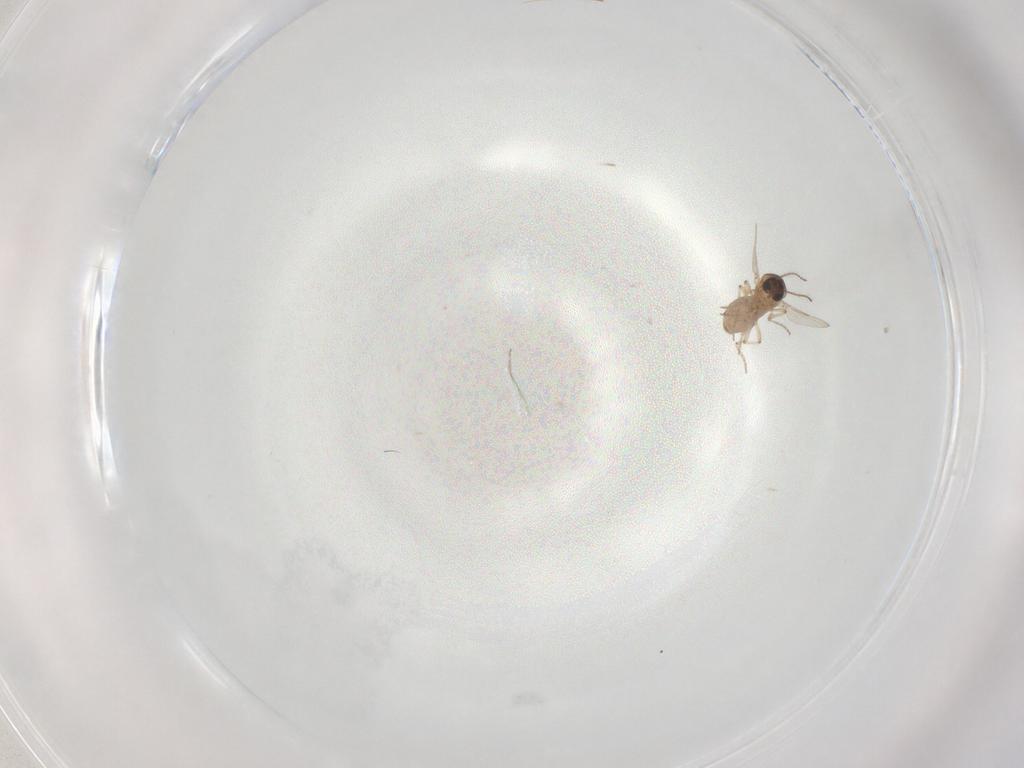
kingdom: Animalia
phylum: Arthropoda
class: Insecta
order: Diptera
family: Ceratopogonidae
